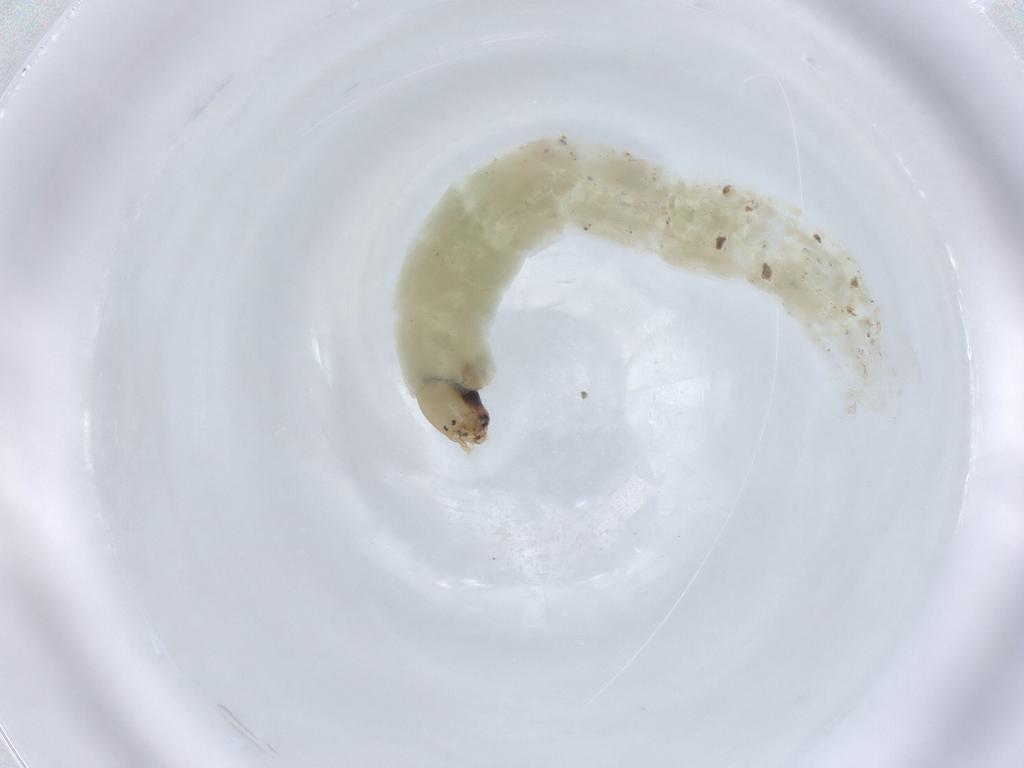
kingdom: Animalia
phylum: Arthropoda
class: Insecta
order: Diptera
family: Chironomidae
